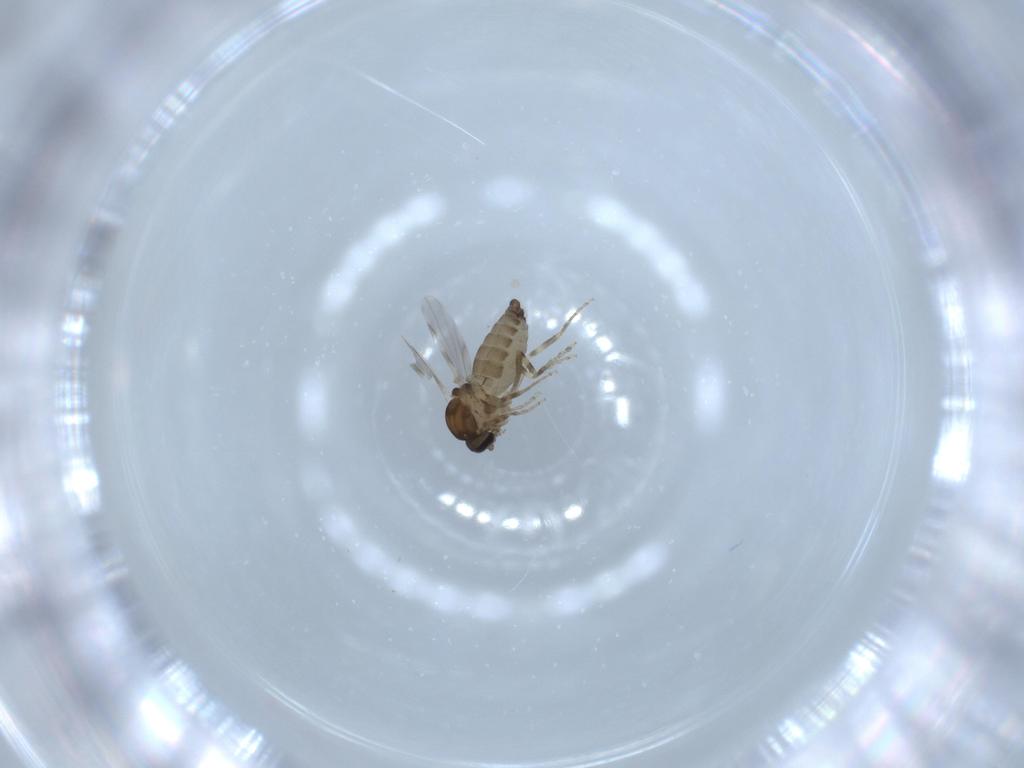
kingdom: Animalia
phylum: Arthropoda
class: Insecta
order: Diptera
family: Ceratopogonidae
